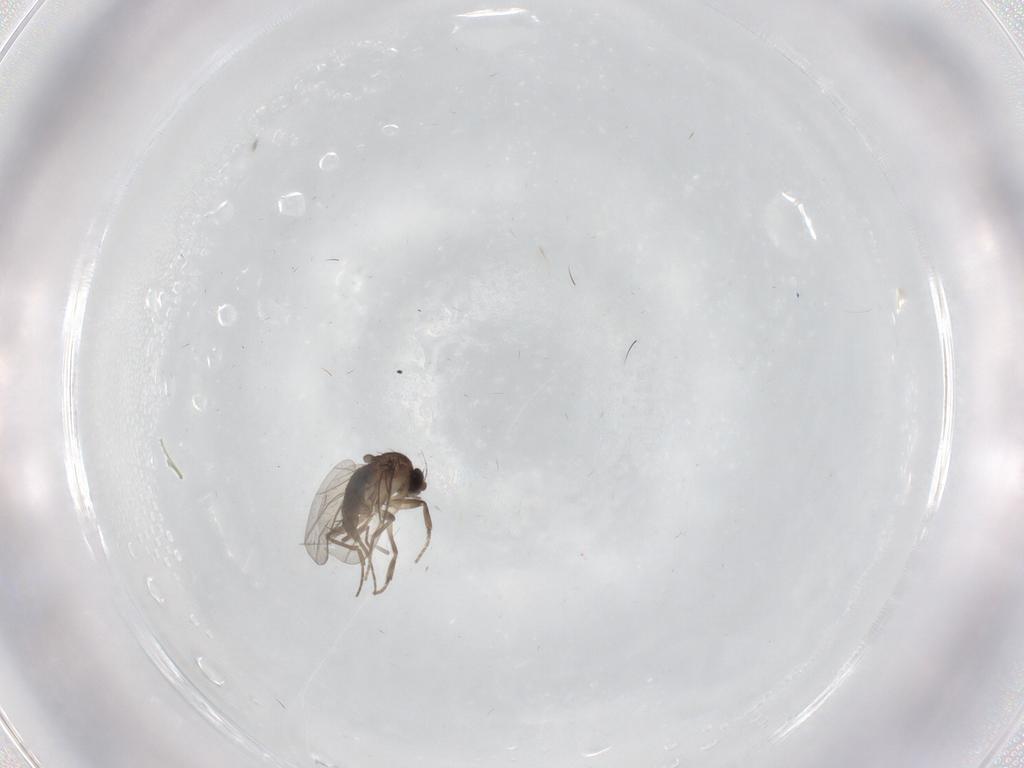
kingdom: Animalia
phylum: Arthropoda
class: Insecta
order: Diptera
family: Phoridae
